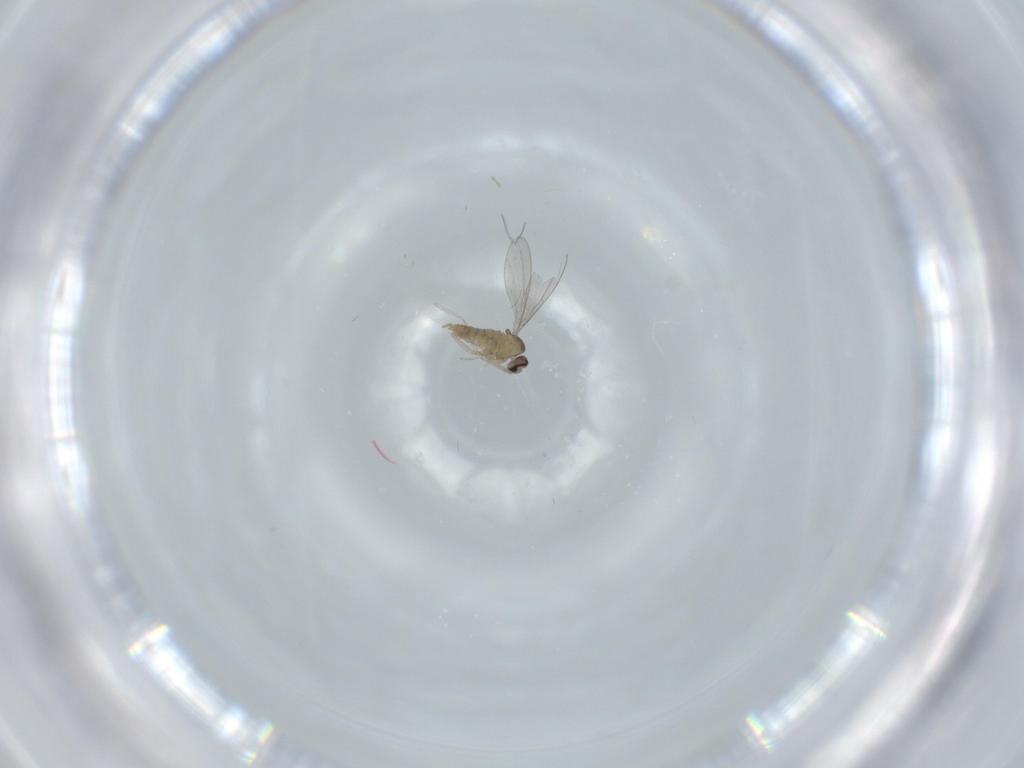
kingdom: Animalia
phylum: Arthropoda
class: Insecta
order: Diptera
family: Cecidomyiidae
